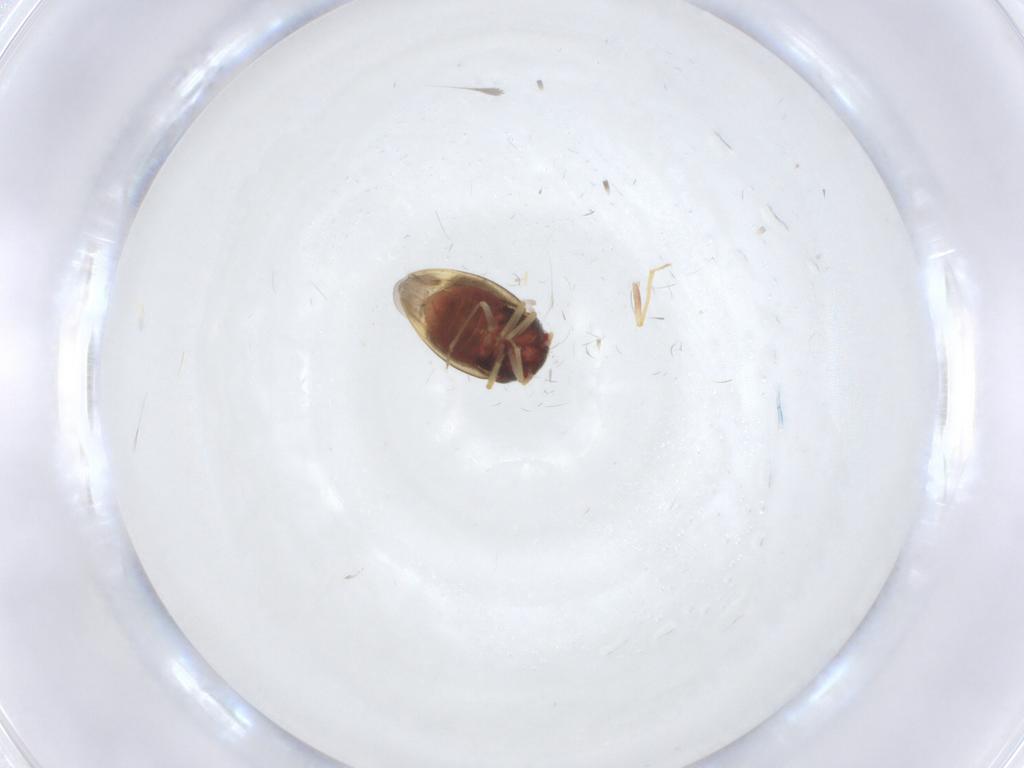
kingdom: Animalia
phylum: Arthropoda
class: Insecta
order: Hemiptera
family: Schizopteridae
